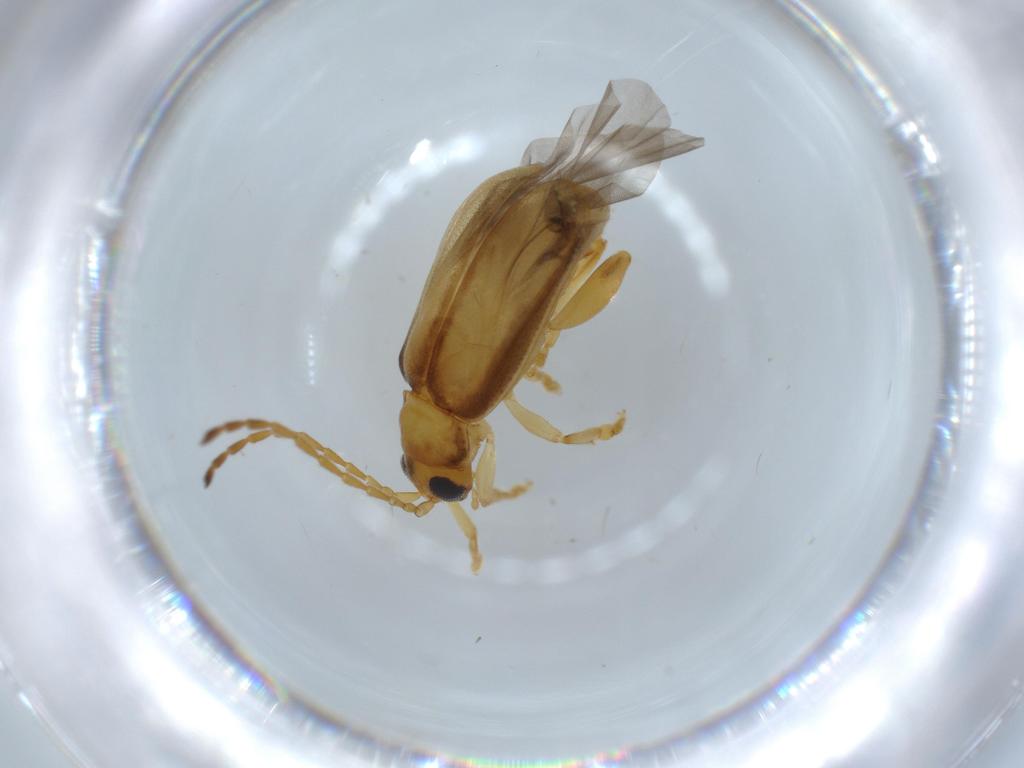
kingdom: Animalia
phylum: Arthropoda
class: Insecta
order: Coleoptera
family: Chrysomelidae
